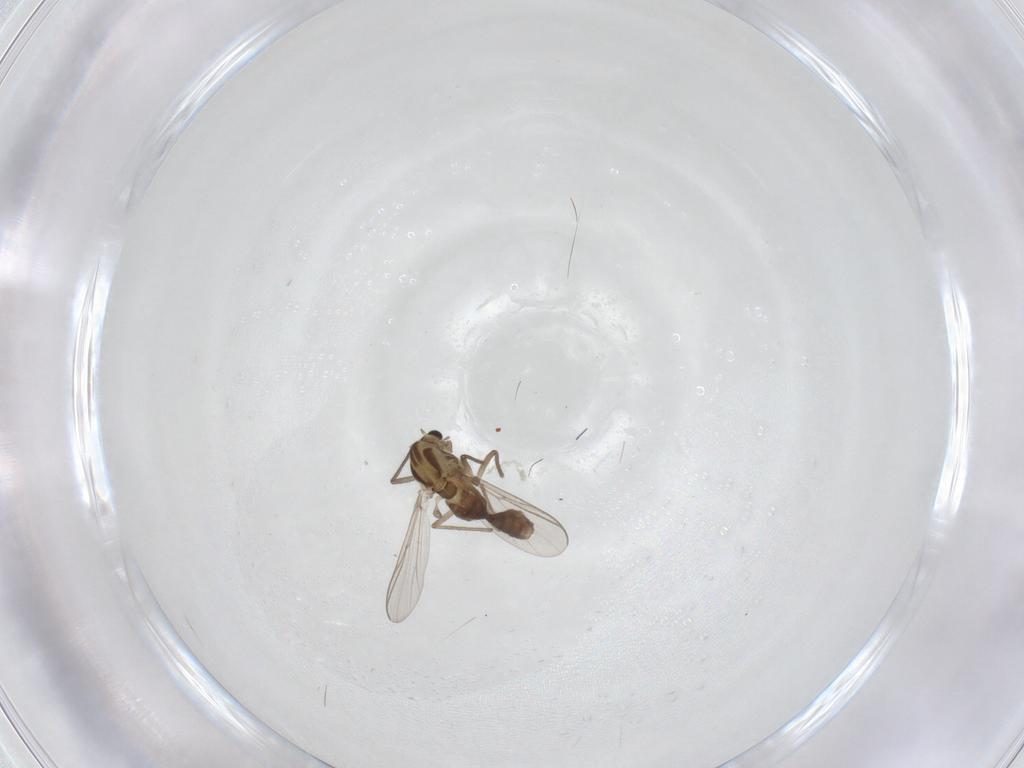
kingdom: Animalia
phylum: Arthropoda
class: Insecta
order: Diptera
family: Chironomidae
